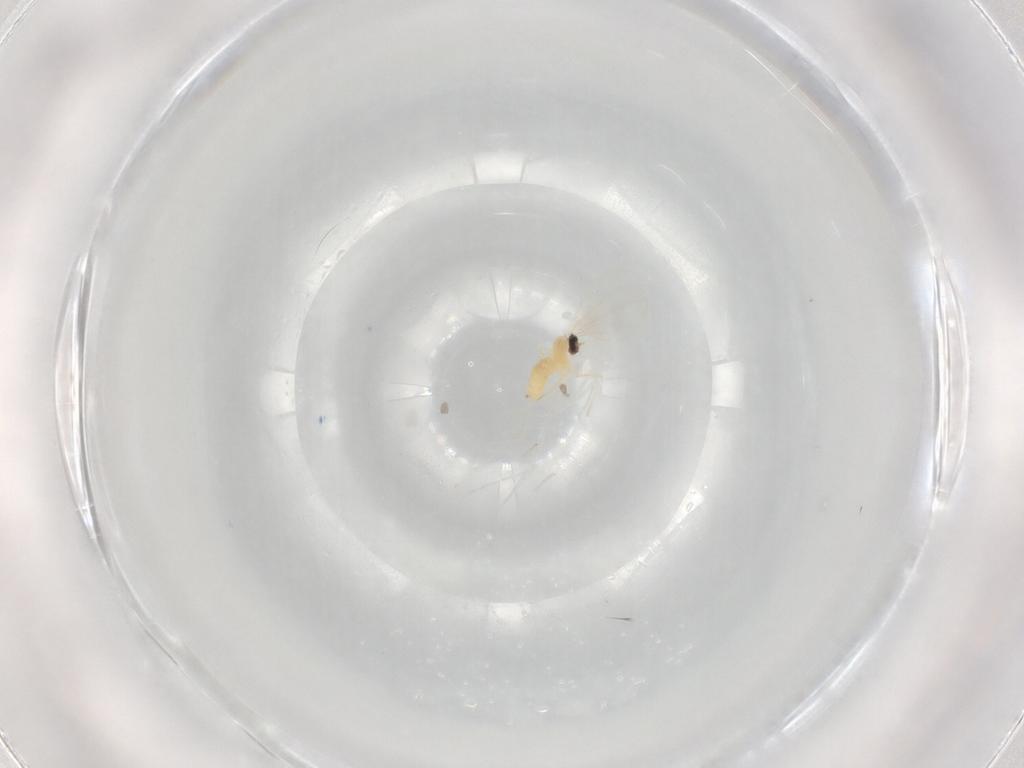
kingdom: Animalia
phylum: Arthropoda
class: Insecta
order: Diptera
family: Cecidomyiidae
